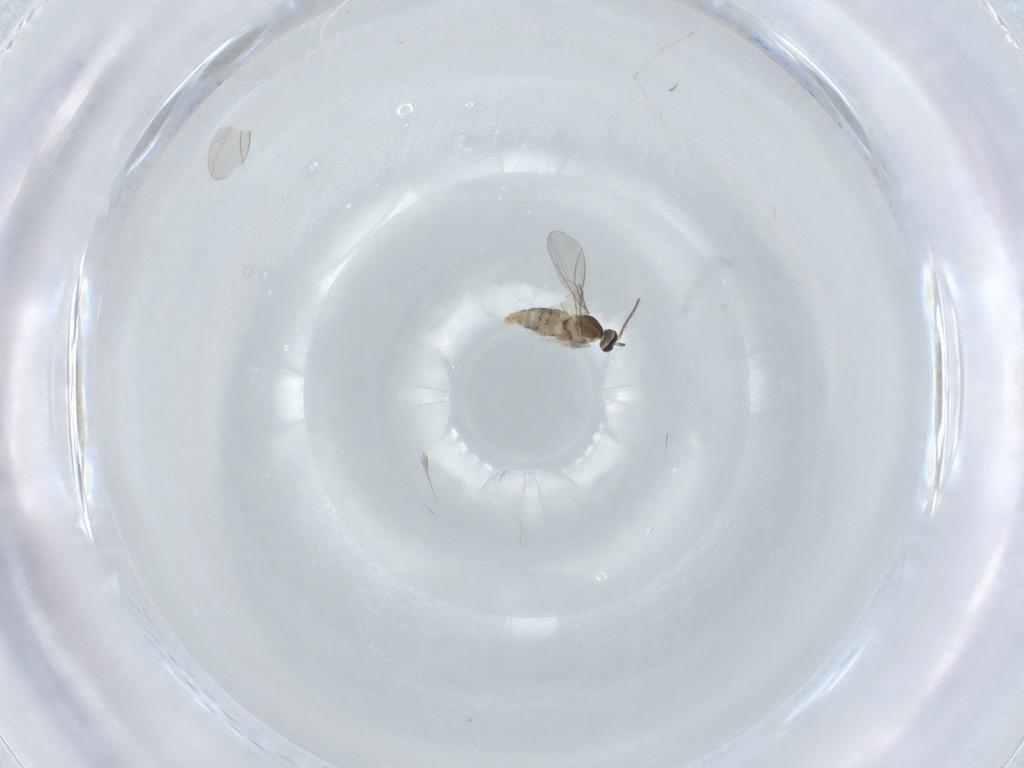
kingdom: Animalia
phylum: Arthropoda
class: Insecta
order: Diptera
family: Cecidomyiidae
